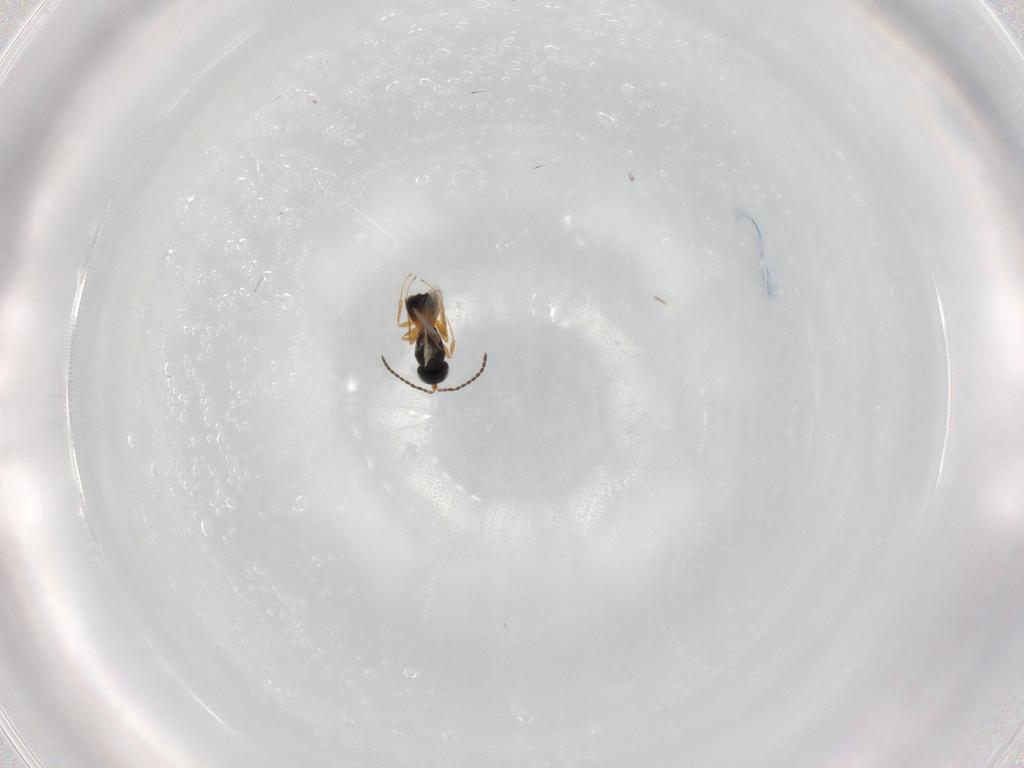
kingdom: Animalia
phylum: Arthropoda
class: Insecta
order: Hymenoptera
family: Scelionidae
